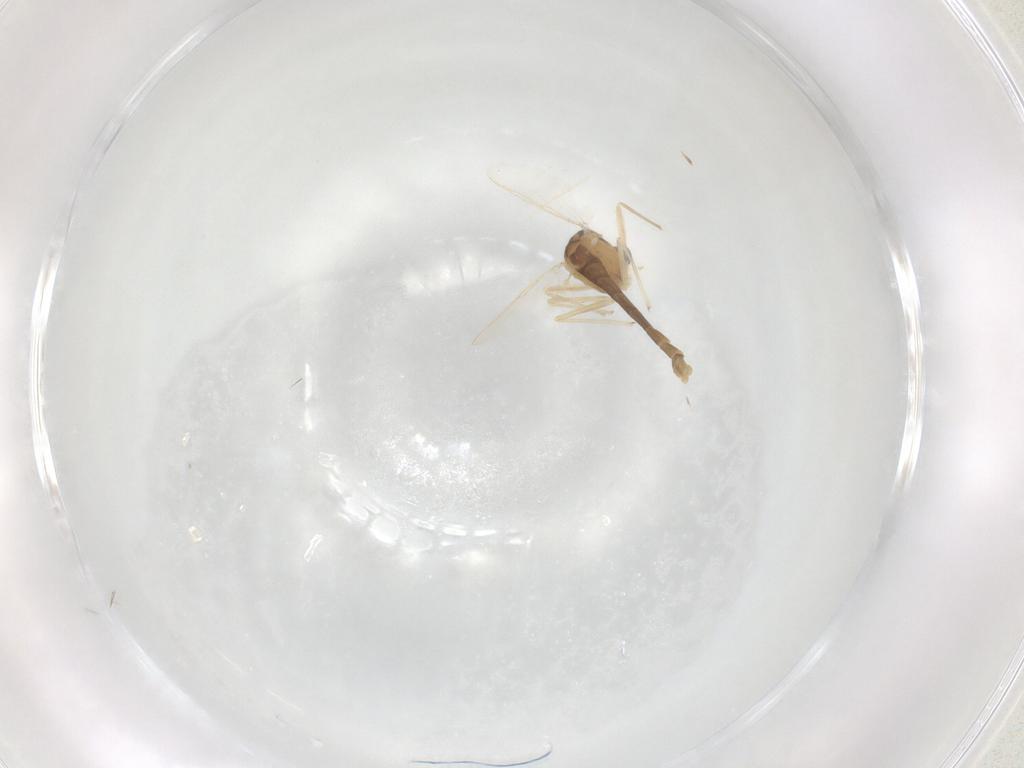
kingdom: Animalia
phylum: Arthropoda
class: Insecta
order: Diptera
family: Chironomidae
